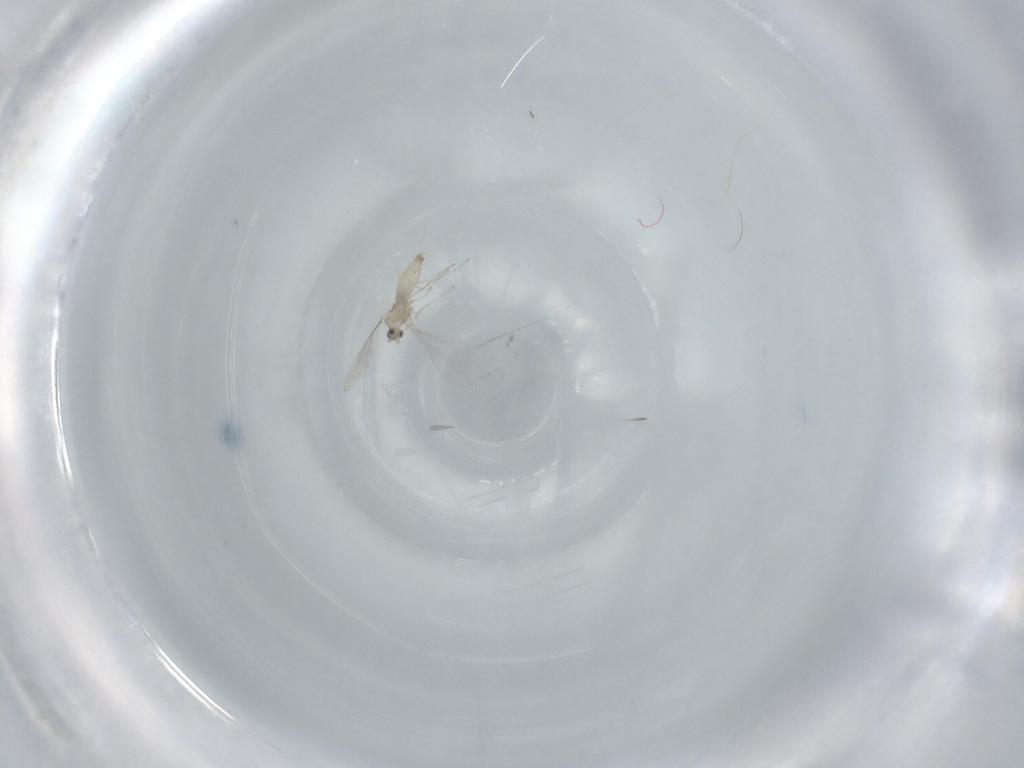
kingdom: Animalia
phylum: Arthropoda
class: Insecta
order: Diptera
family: Cecidomyiidae
